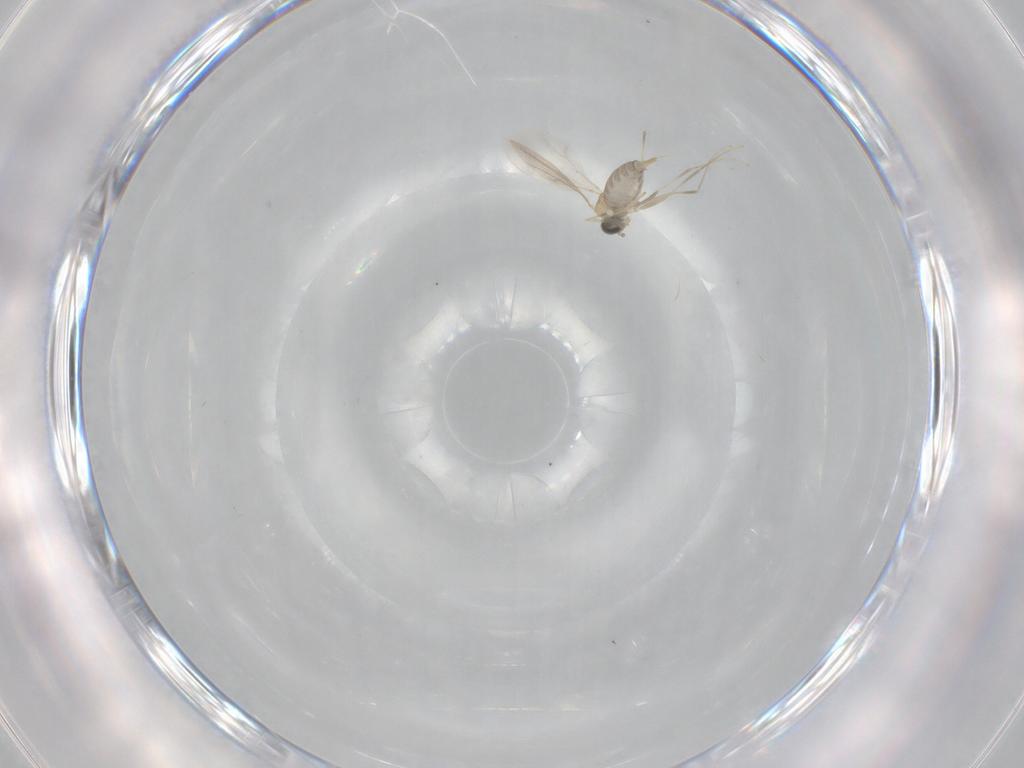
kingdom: Animalia
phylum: Arthropoda
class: Insecta
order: Diptera
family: Cecidomyiidae
